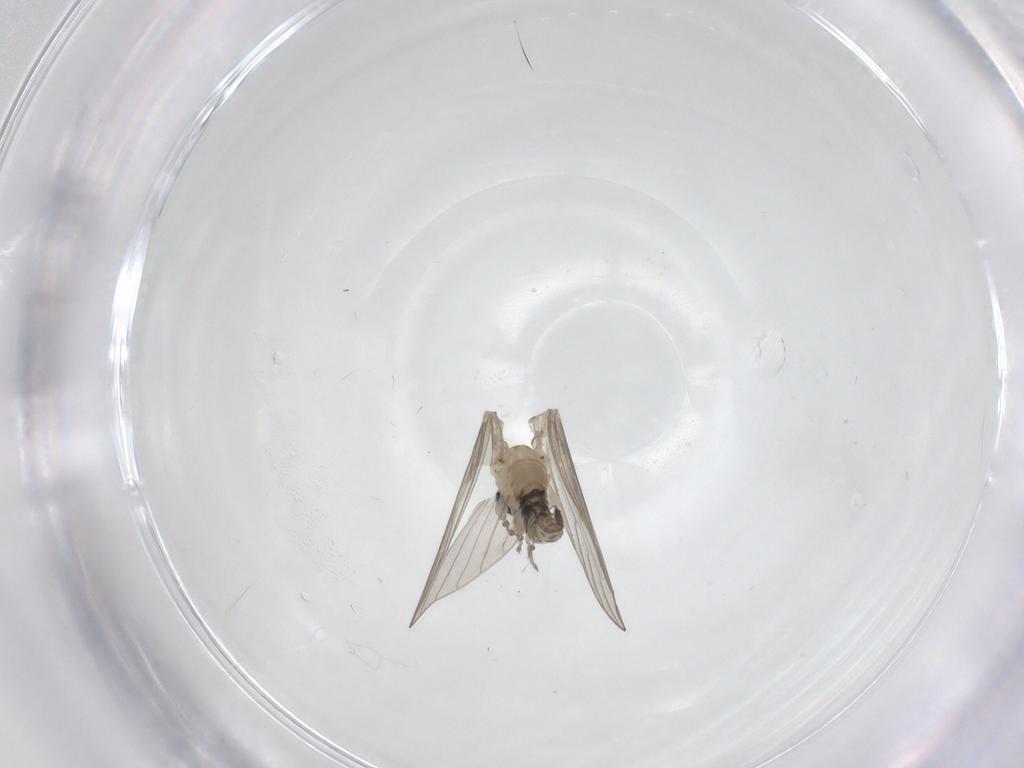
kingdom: Animalia
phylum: Arthropoda
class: Insecta
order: Diptera
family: Psychodidae
